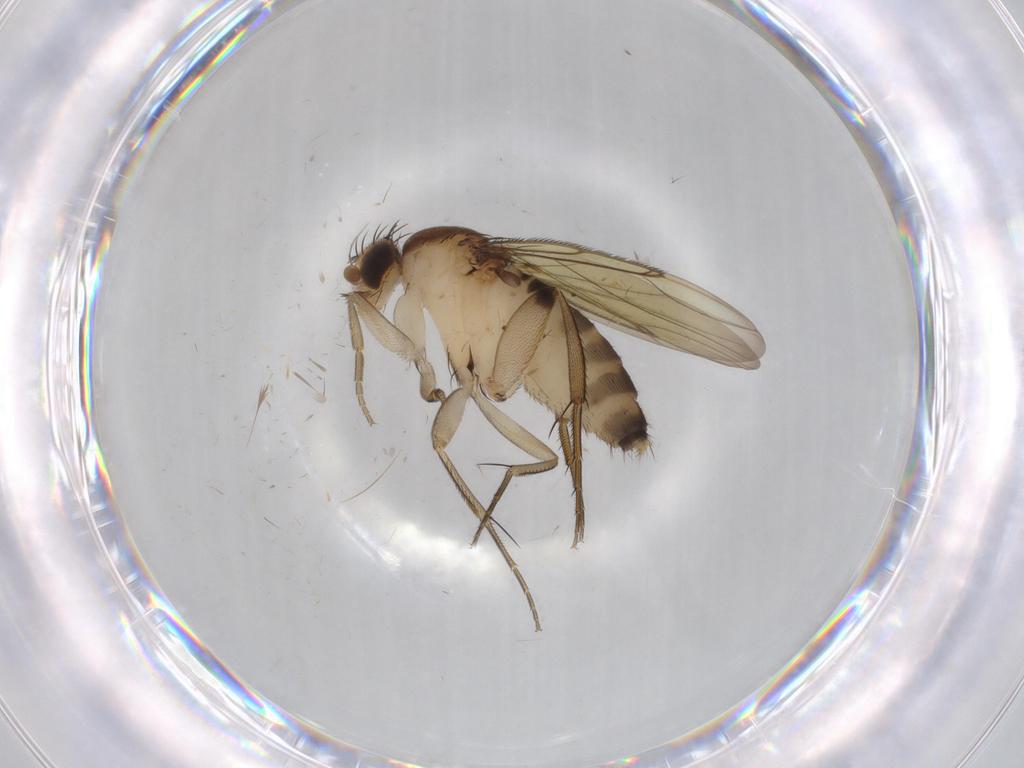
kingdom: Animalia
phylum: Arthropoda
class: Insecta
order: Diptera
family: Phoridae
